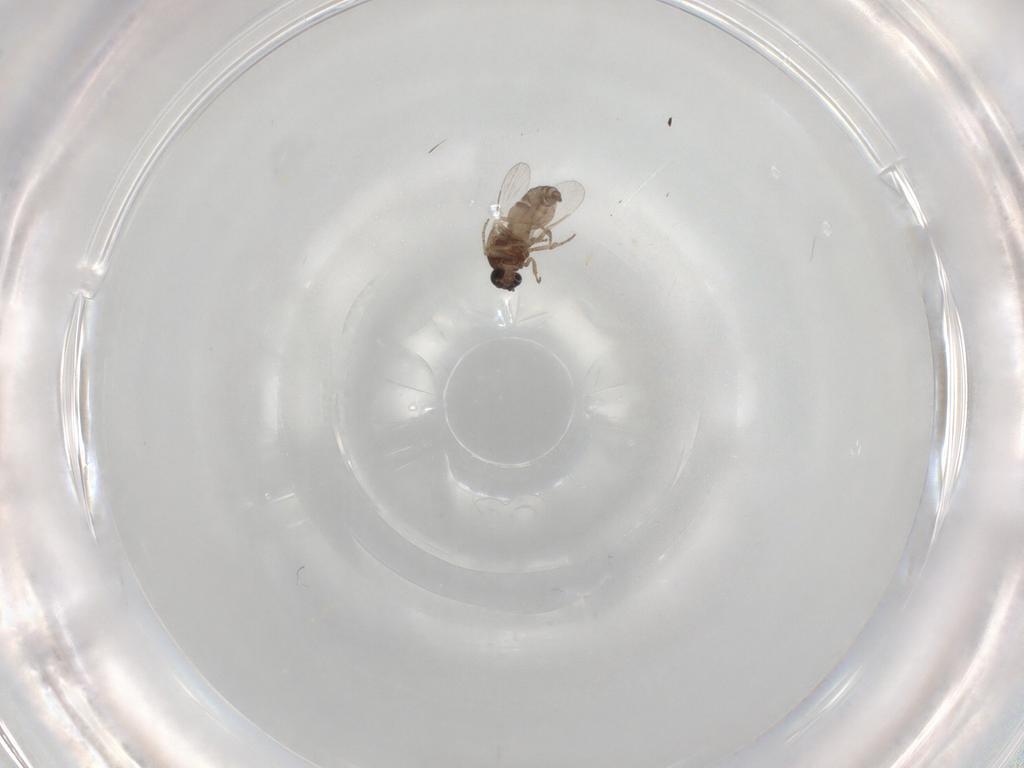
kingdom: Animalia
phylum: Arthropoda
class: Insecta
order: Diptera
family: Ceratopogonidae
